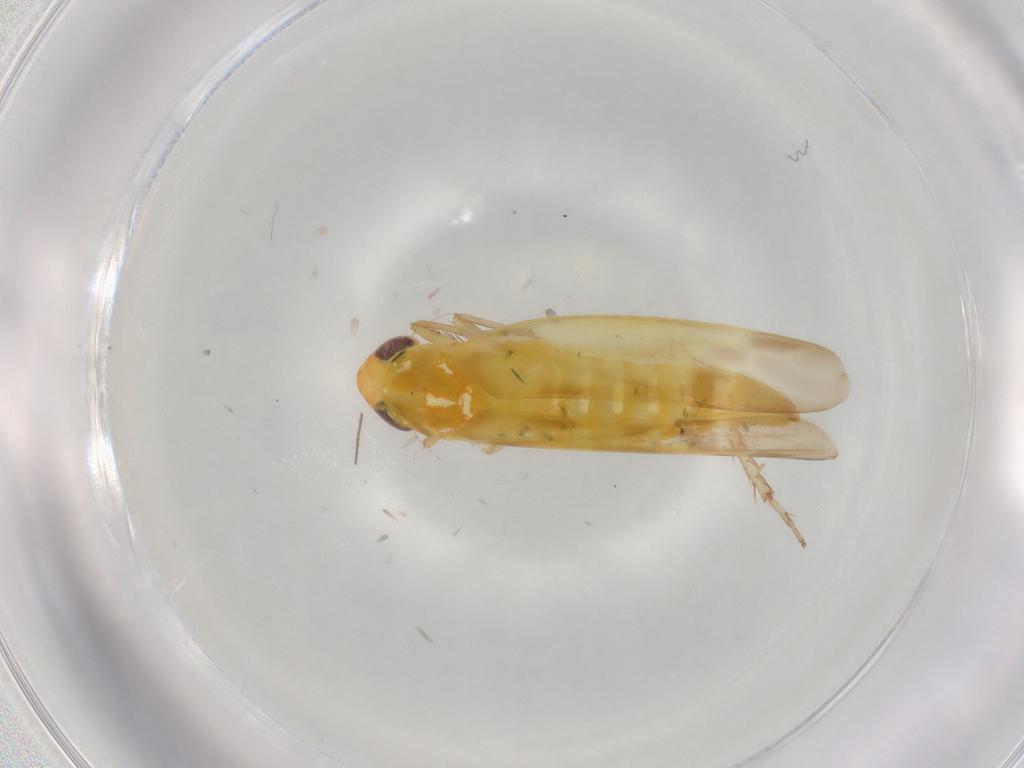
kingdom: Animalia
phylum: Arthropoda
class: Insecta
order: Hemiptera
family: Cicadellidae
